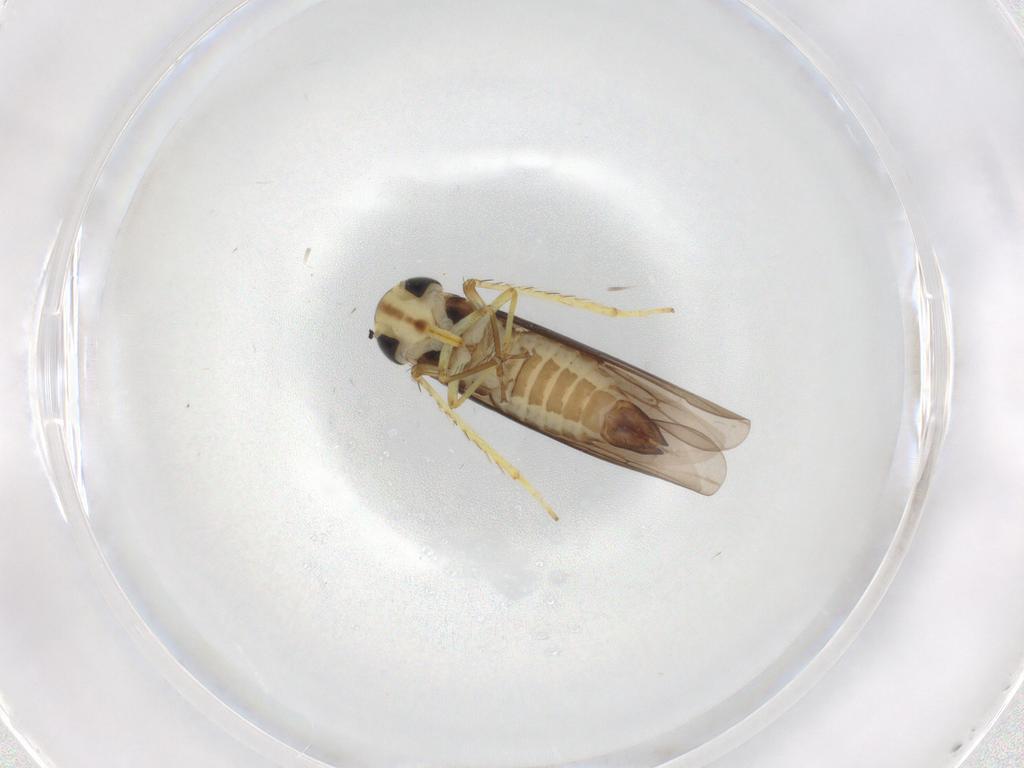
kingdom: Animalia
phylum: Arthropoda
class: Insecta
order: Hemiptera
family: Cicadellidae
